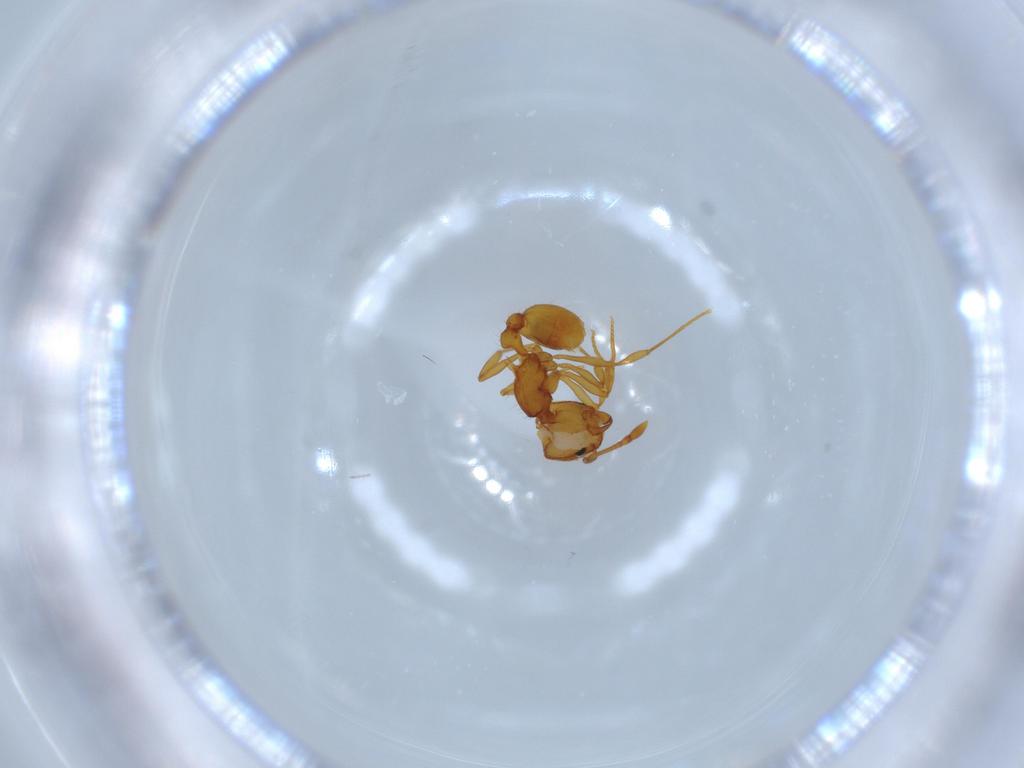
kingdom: Animalia
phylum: Arthropoda
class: Insecta
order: Hymenoptera
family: Formicidae
